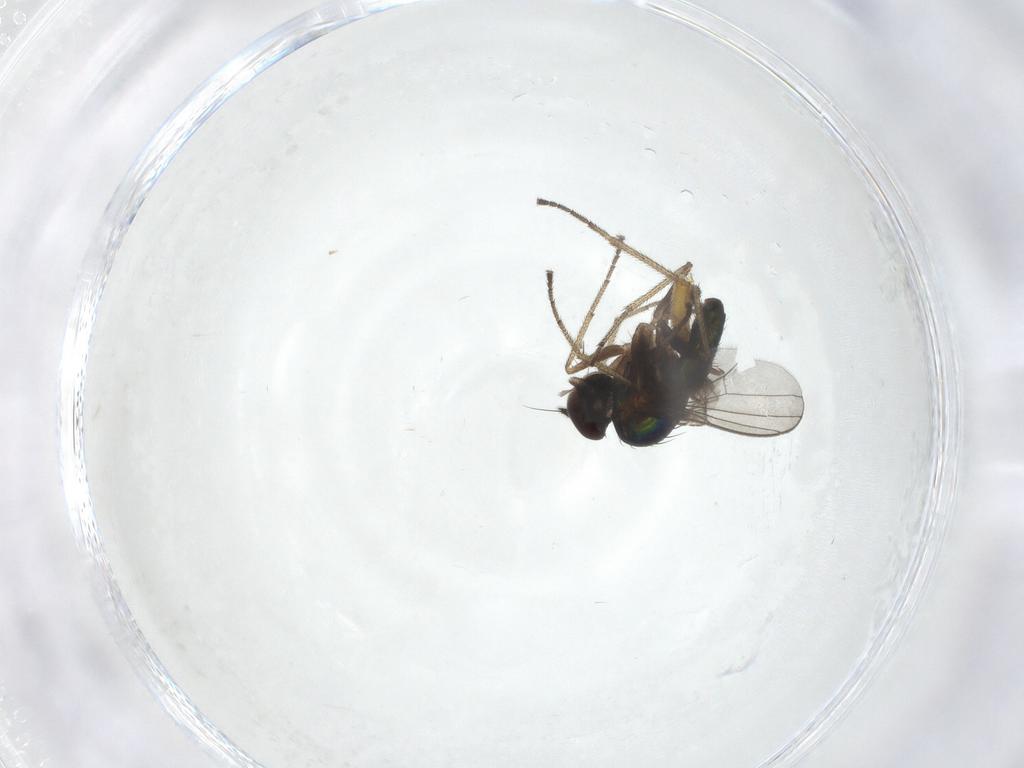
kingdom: Animalia
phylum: Arthropoda
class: Insecta
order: Diptera
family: Dolichopodidae
